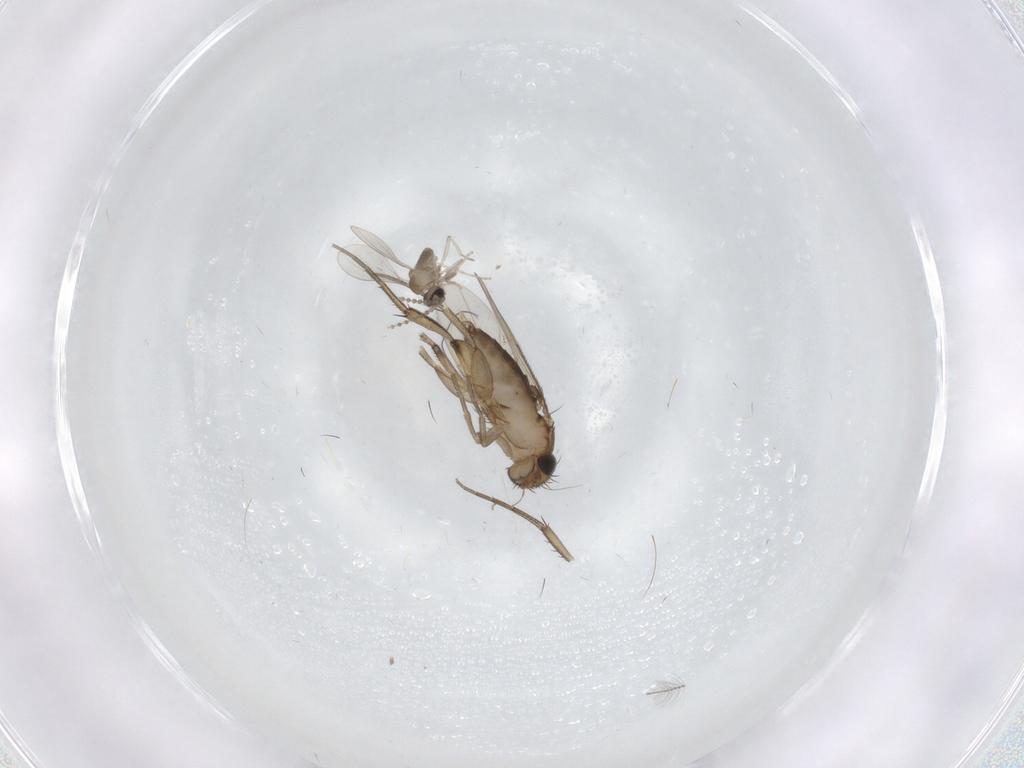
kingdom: Animalia
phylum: Arthropoda
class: Insecta
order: Diptera
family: Phoridae
